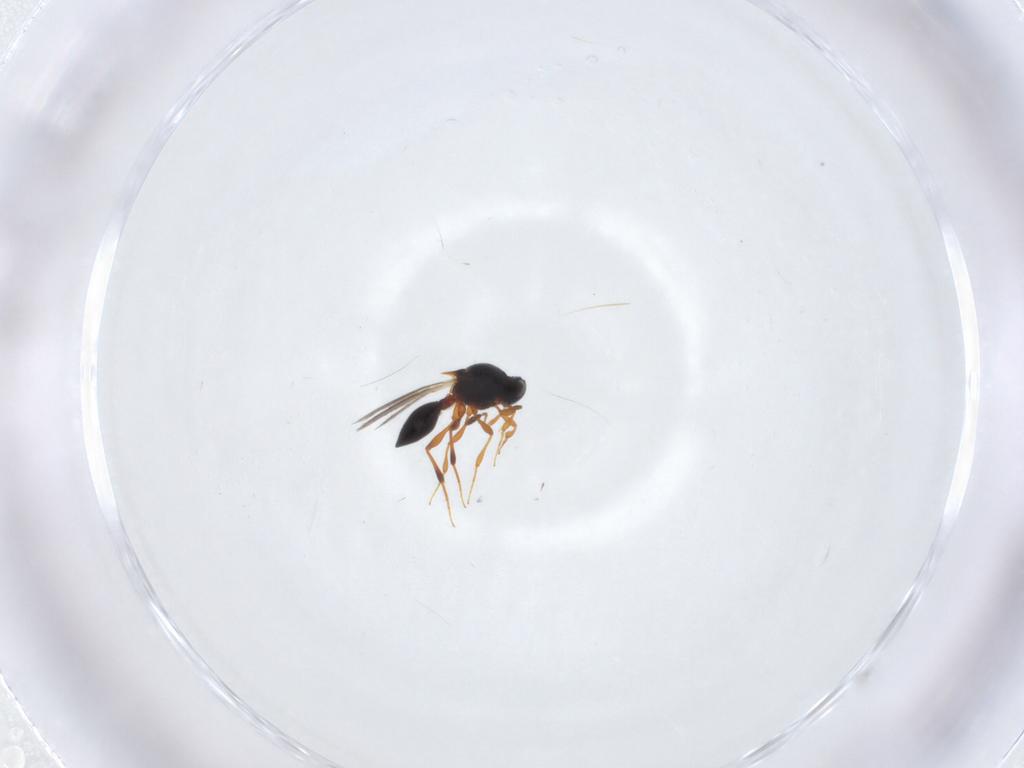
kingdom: Animalia
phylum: Arthropoda
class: Insecta
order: Hymenoptera
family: Platygastridae
